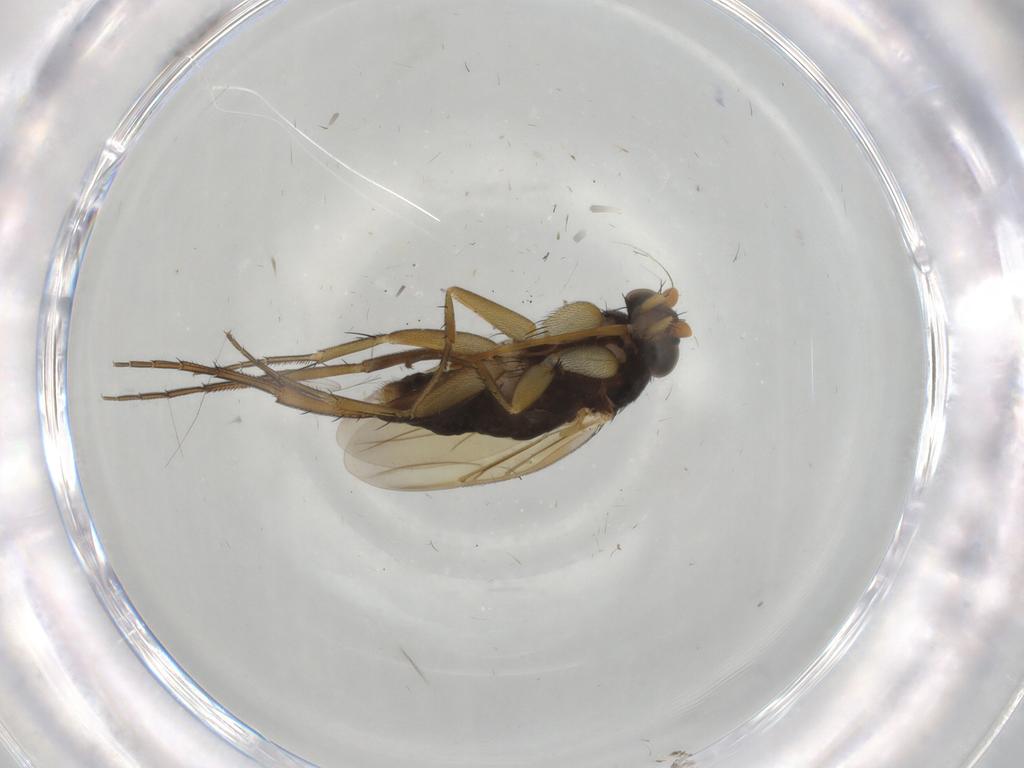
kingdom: Animalia
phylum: Arthropoda
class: Insecta
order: Diptera
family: Phoridae
